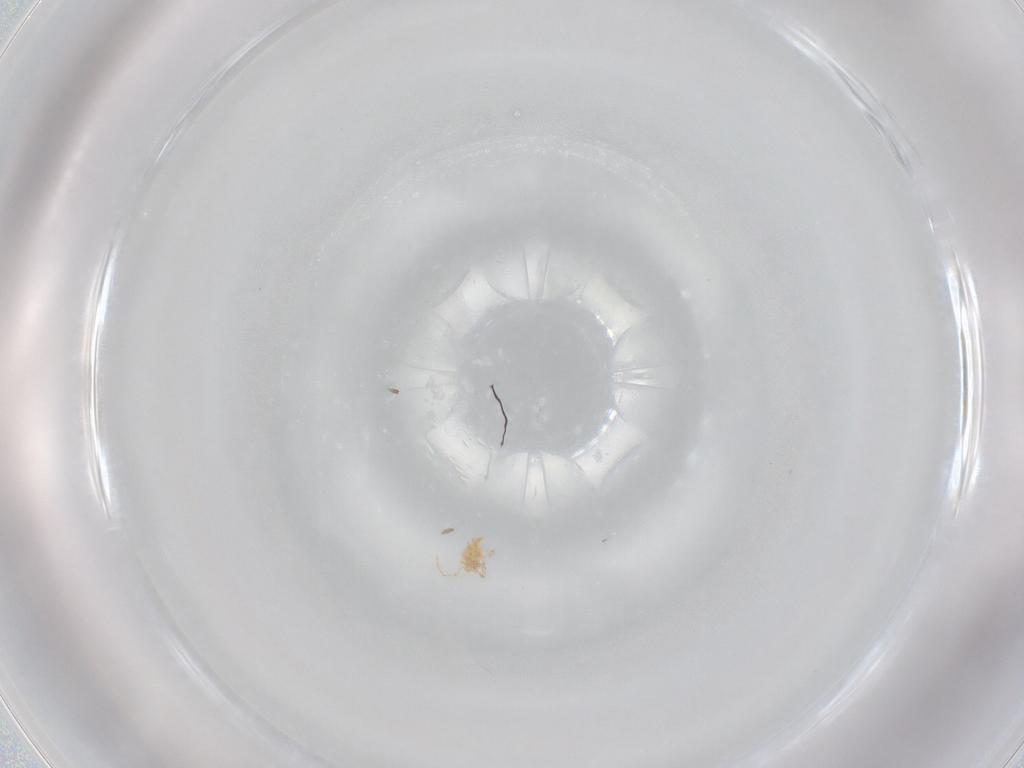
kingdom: Animalia
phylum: Arthropoda
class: Arachnida
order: Trombidiformes
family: Erythraeidae
